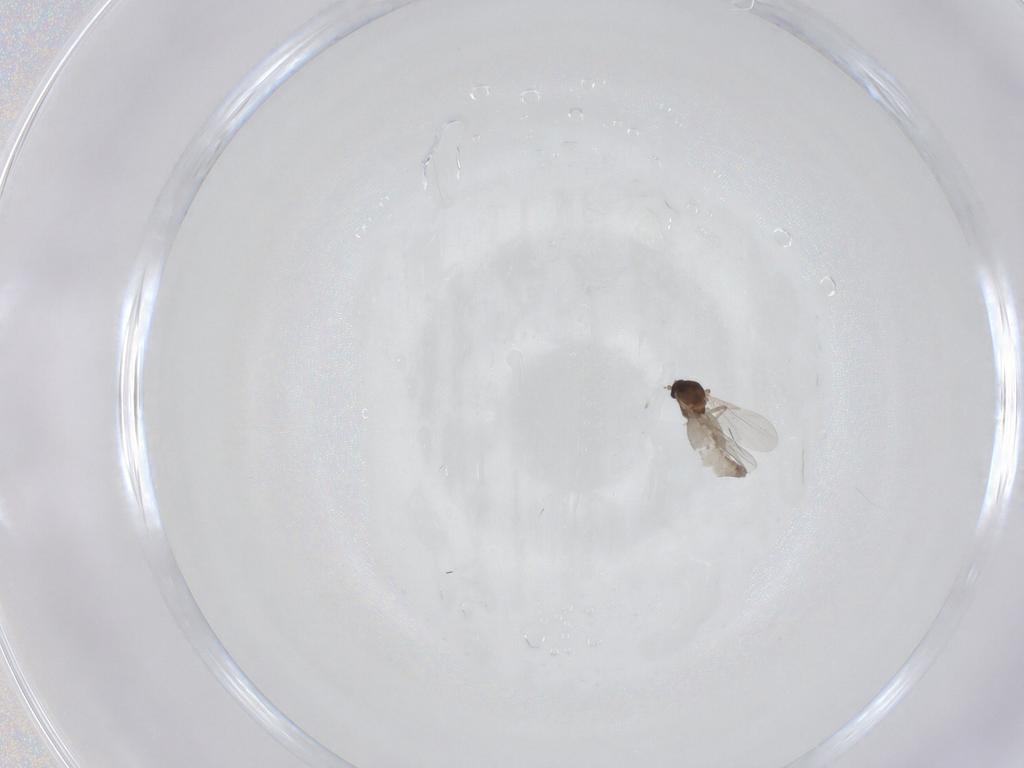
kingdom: Animalia
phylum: Arthropoda
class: Insecta
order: Diptera
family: Ceratopogonidae
